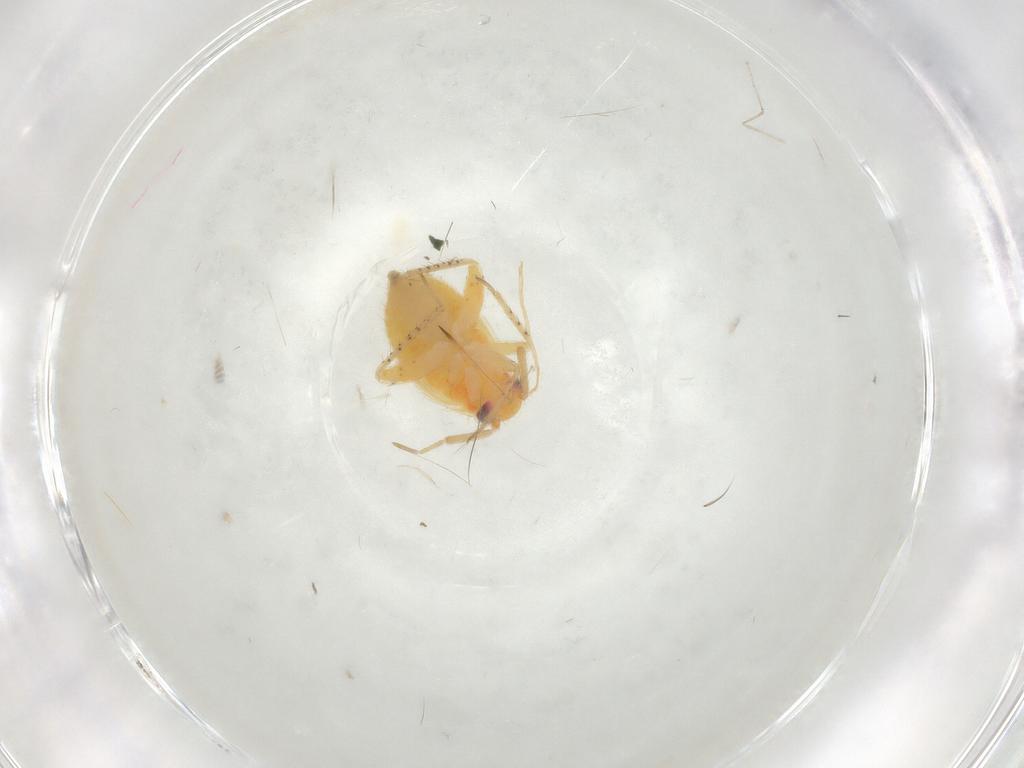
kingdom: Animalia
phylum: Arthropoda
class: Insecta
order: Hemiptera
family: Miridae
